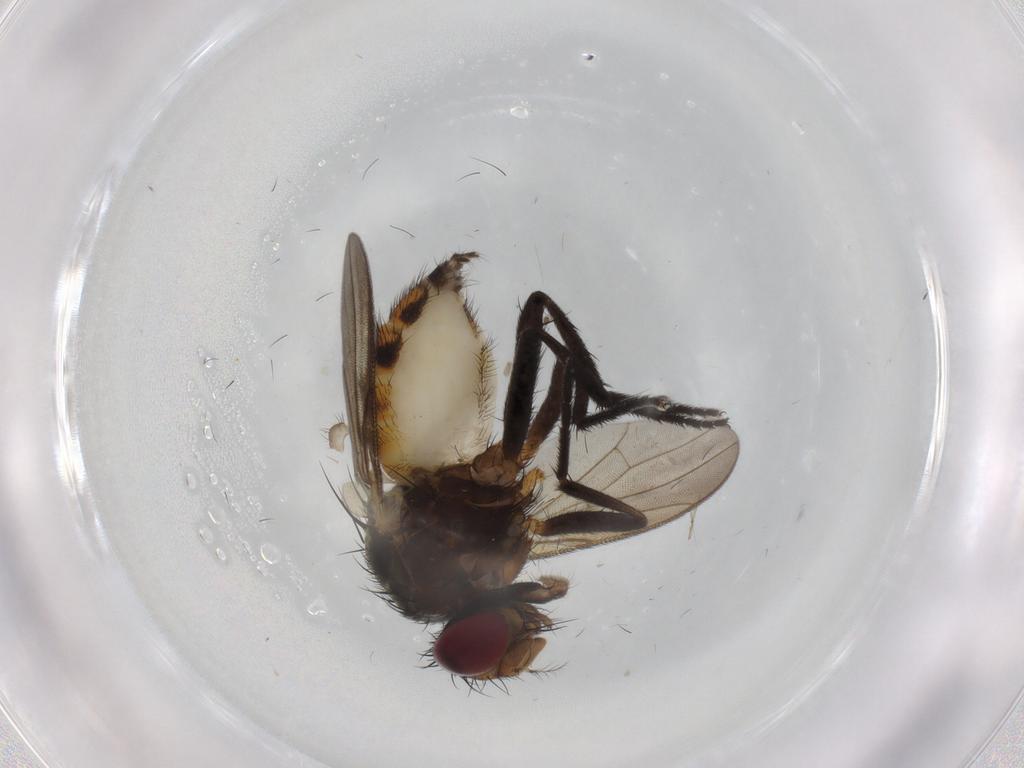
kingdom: Animalia
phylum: Arthropoda
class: Insecta
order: Diptera
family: Anthomyiidae
